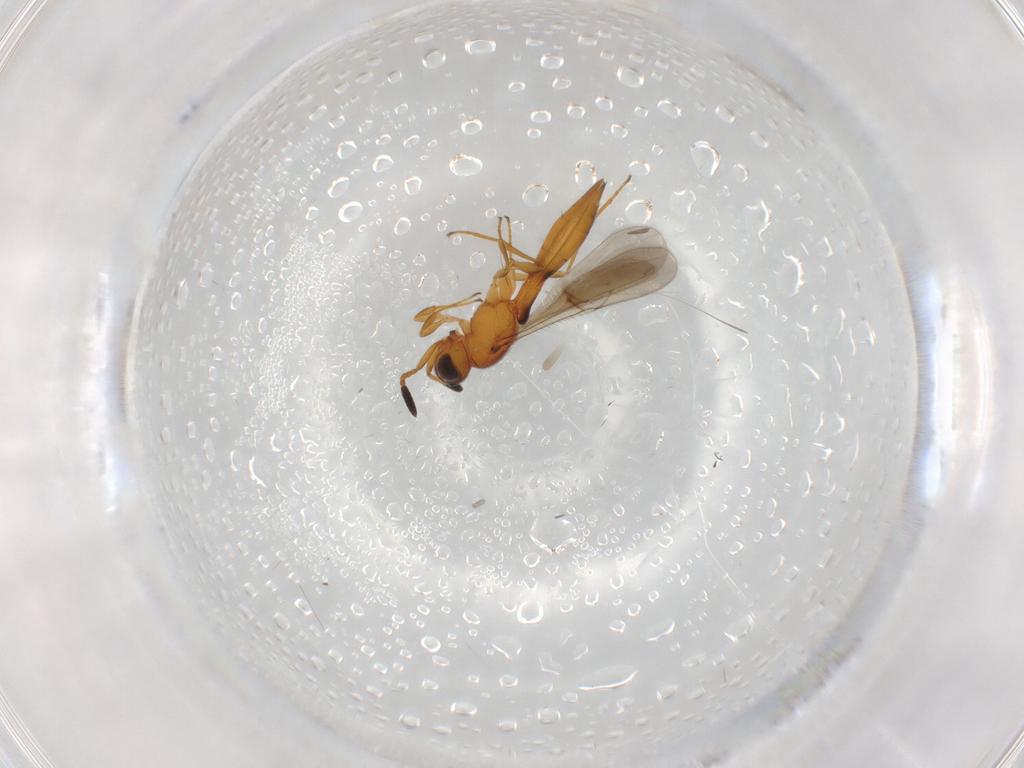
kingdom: Animalia
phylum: Arthropoda
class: Insecta
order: Hymenoptera
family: Scelionidae
